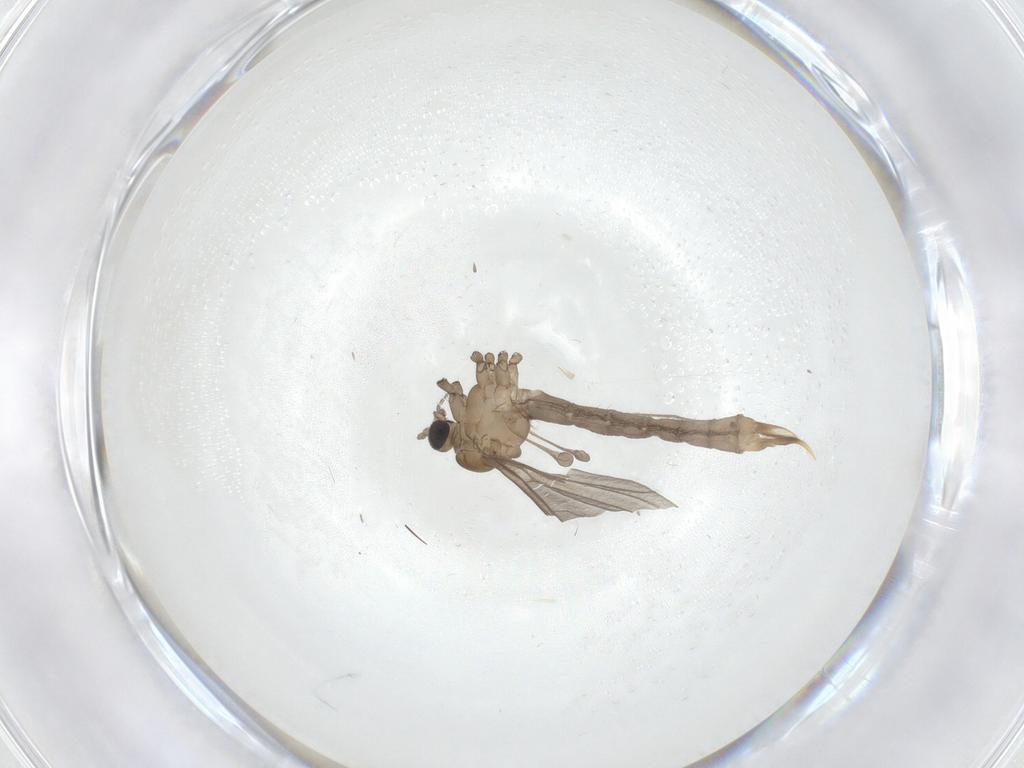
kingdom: Animalia
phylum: Arthropoda
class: Insecta
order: Diptera
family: Limoniidae
